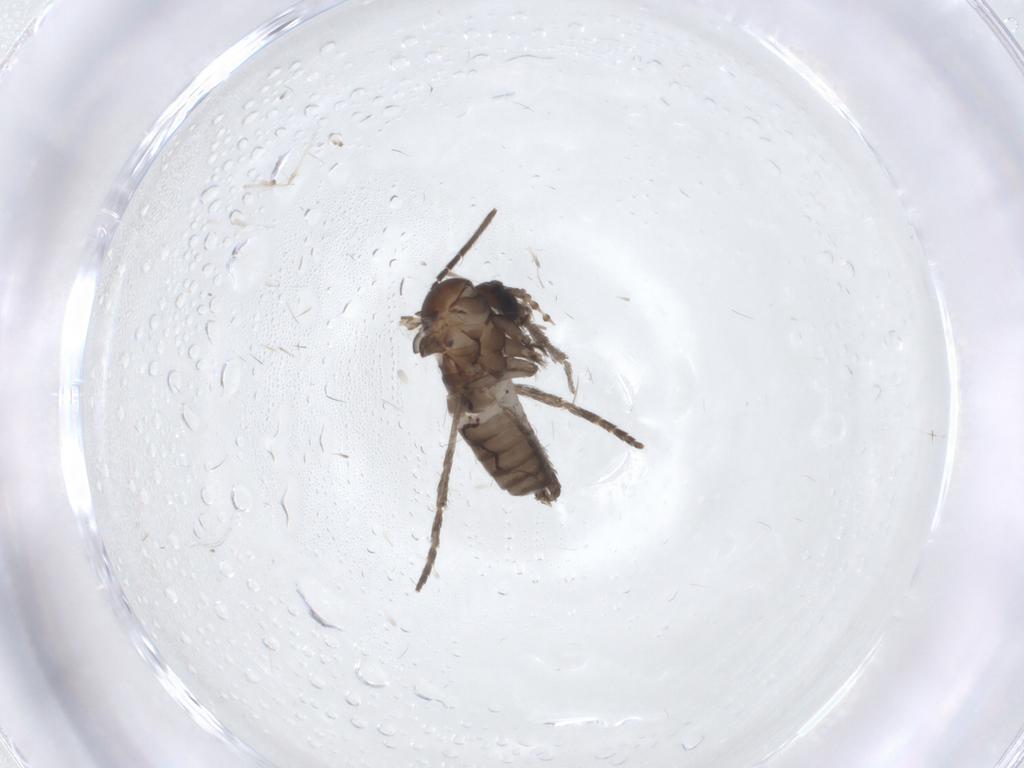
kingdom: Animalia
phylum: Arthropoda
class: Insecta
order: Diptera
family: Psychodidae
